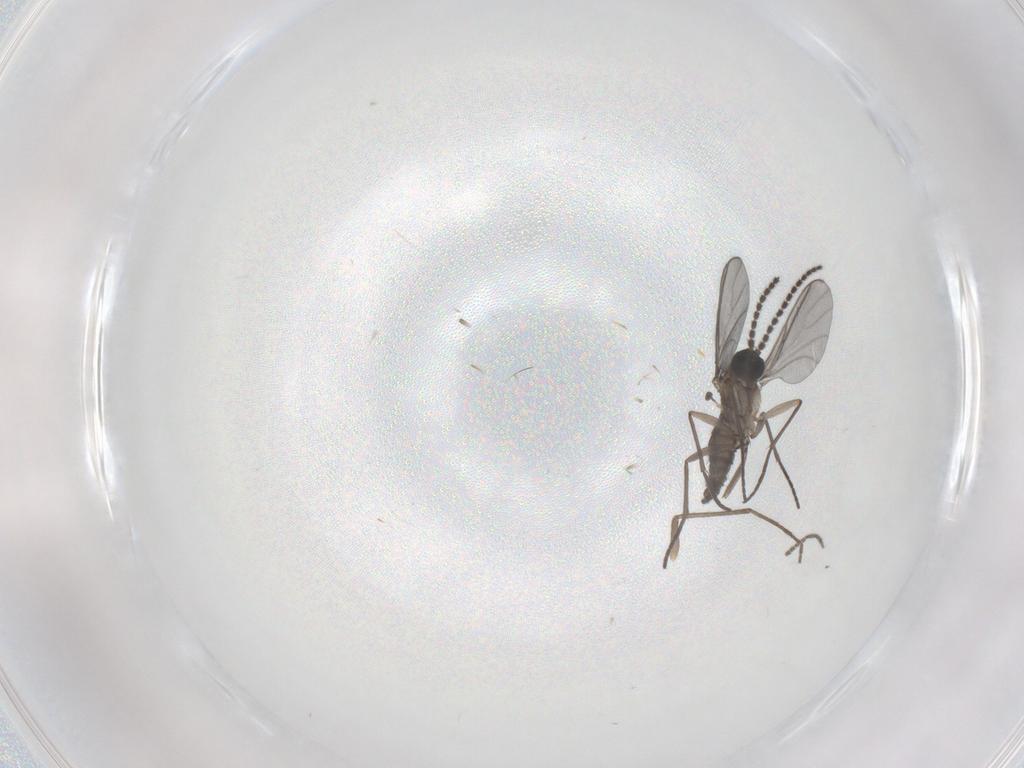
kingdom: Animalia
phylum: Arthropoda
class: Insecta
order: Diptera
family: Chironomidae
